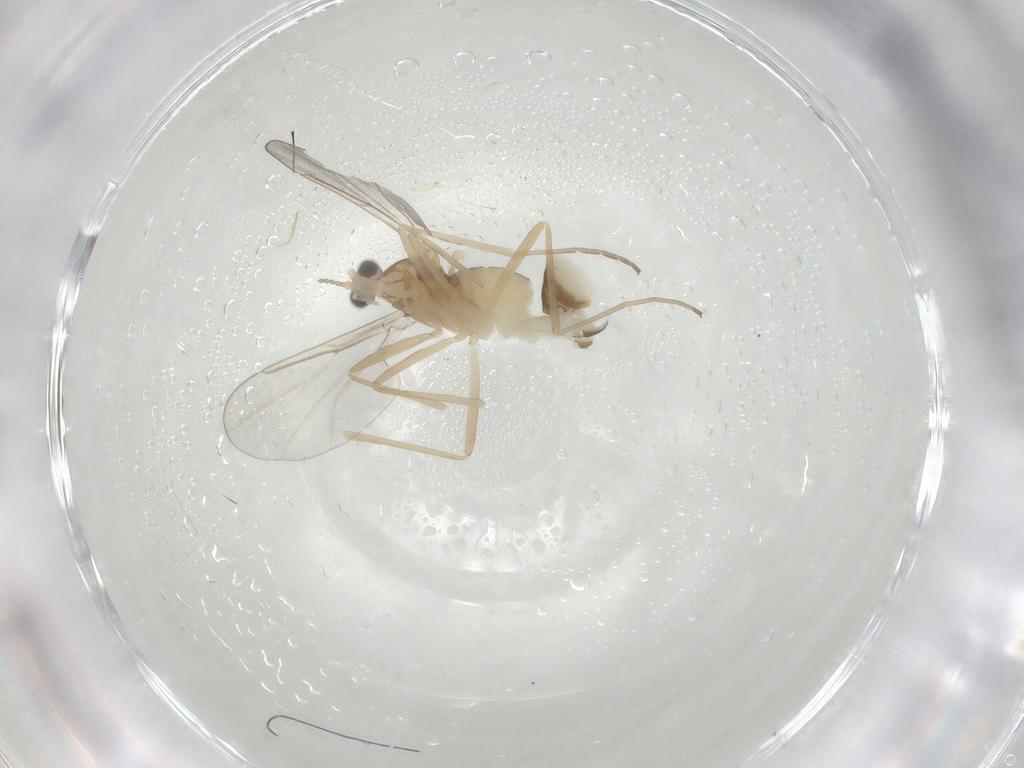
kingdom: Animalia
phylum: Arthropoda
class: Insecta
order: Diptera
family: Cecidomyiidae
